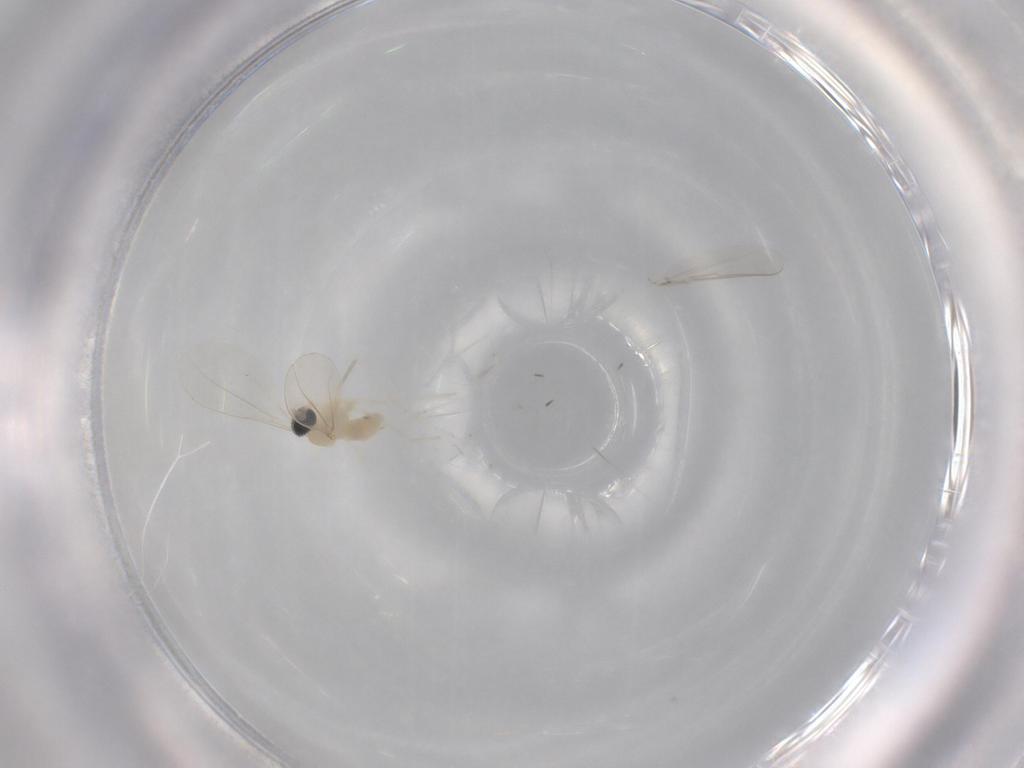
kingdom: Animalia
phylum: Arthropoda
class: Insecta
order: Diptera
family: Cecidomyiidae
